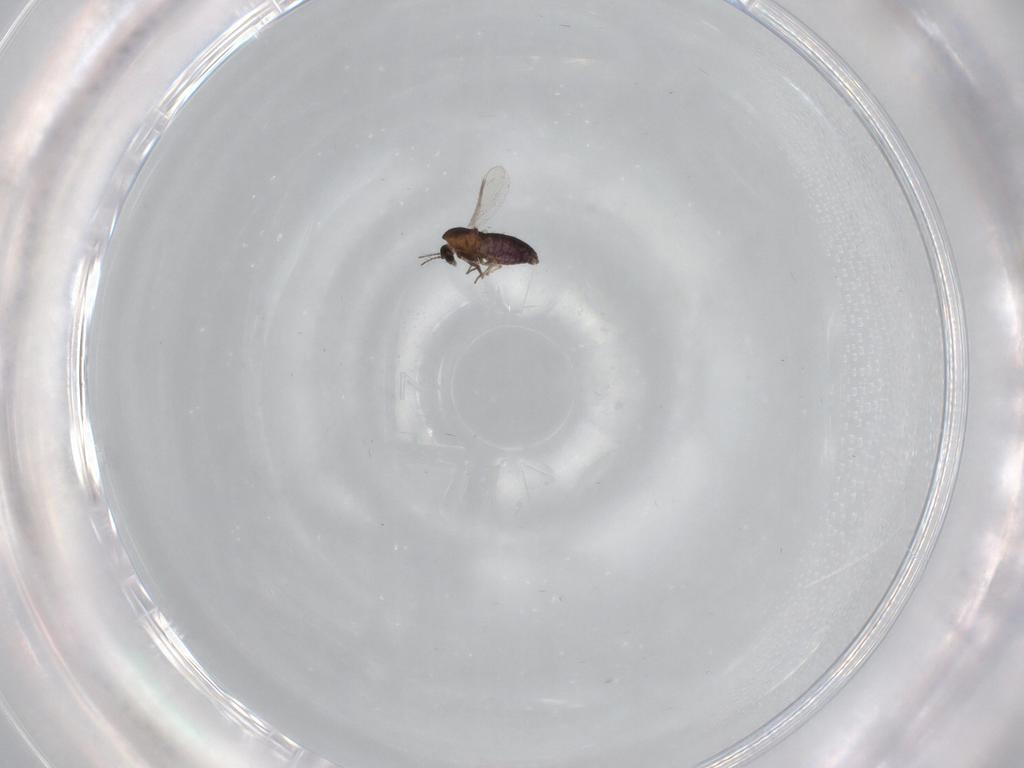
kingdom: Animalia
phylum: Arthropoda
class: Insecta
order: Diptera
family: Chironomidae
